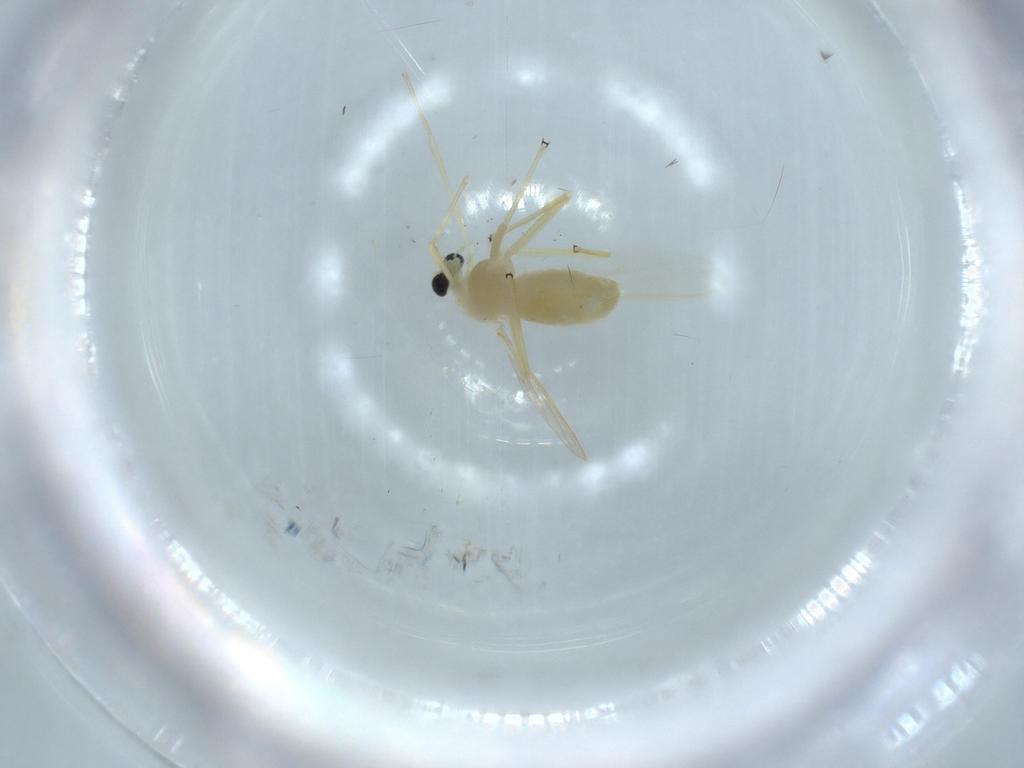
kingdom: Animalia
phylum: Arthropoda
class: Insecta
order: Diptera
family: Chironomidae
